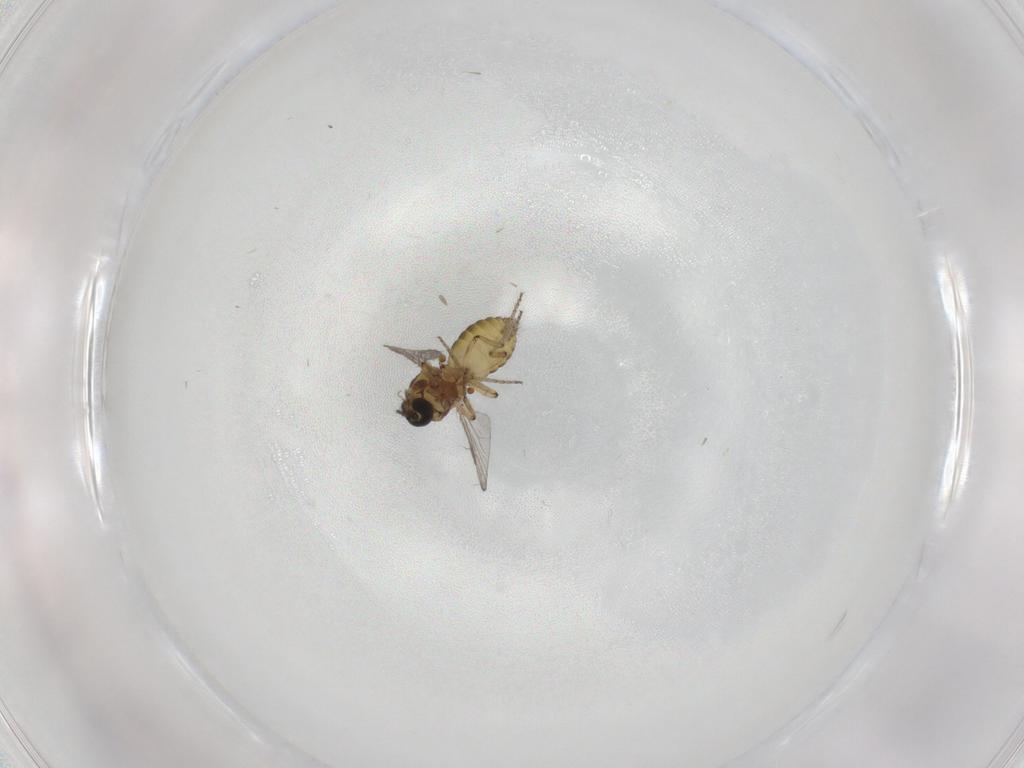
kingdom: Animalia
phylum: Arthropoda
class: Insecta
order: Diptera
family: Ceratopogonidae
